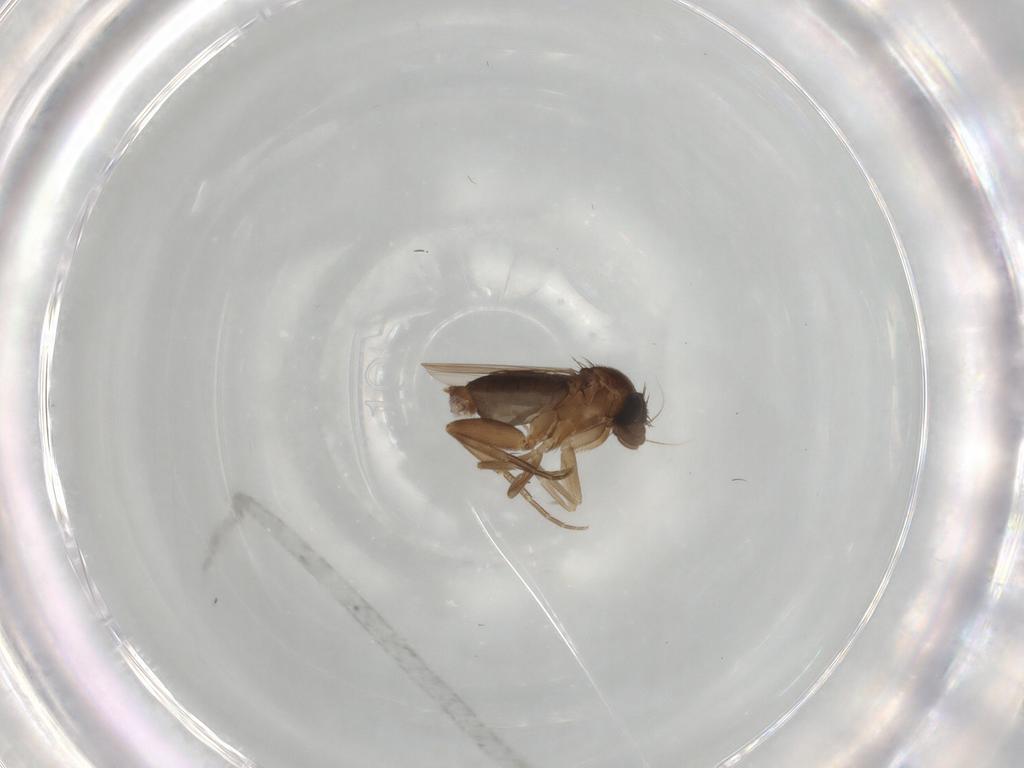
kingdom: Animalia
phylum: Arthropoda
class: Insecta
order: Diptera
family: Phoridae
